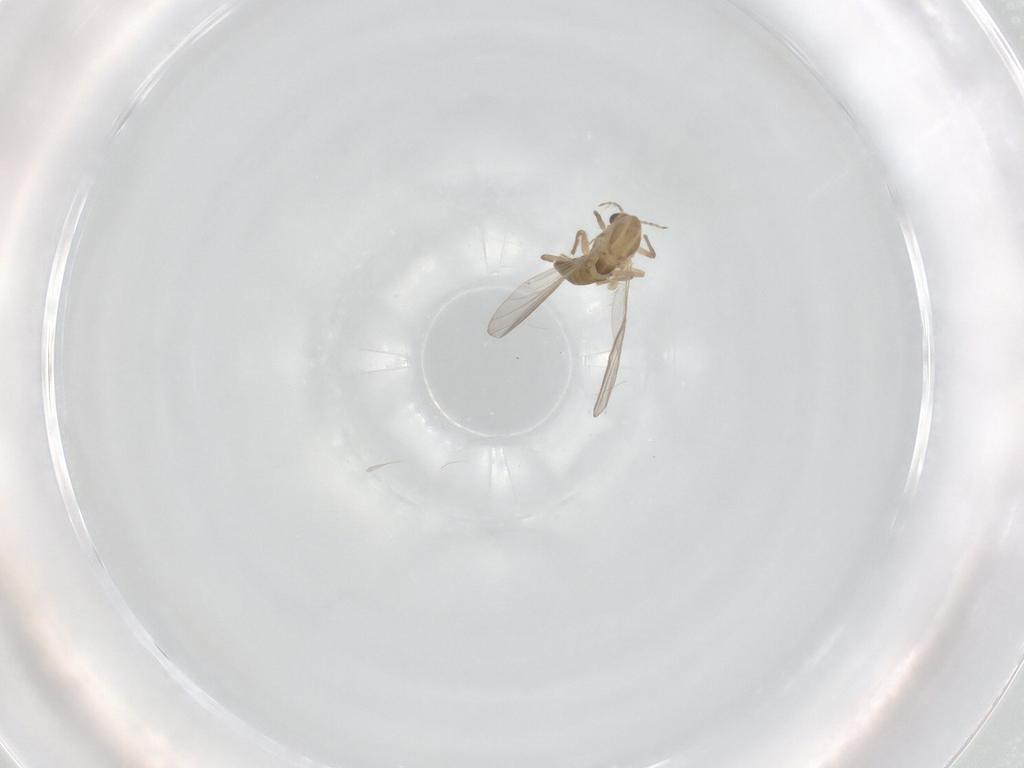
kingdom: Animalia
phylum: Arthropoda
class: Insecta
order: Diptera
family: Chironomidae
